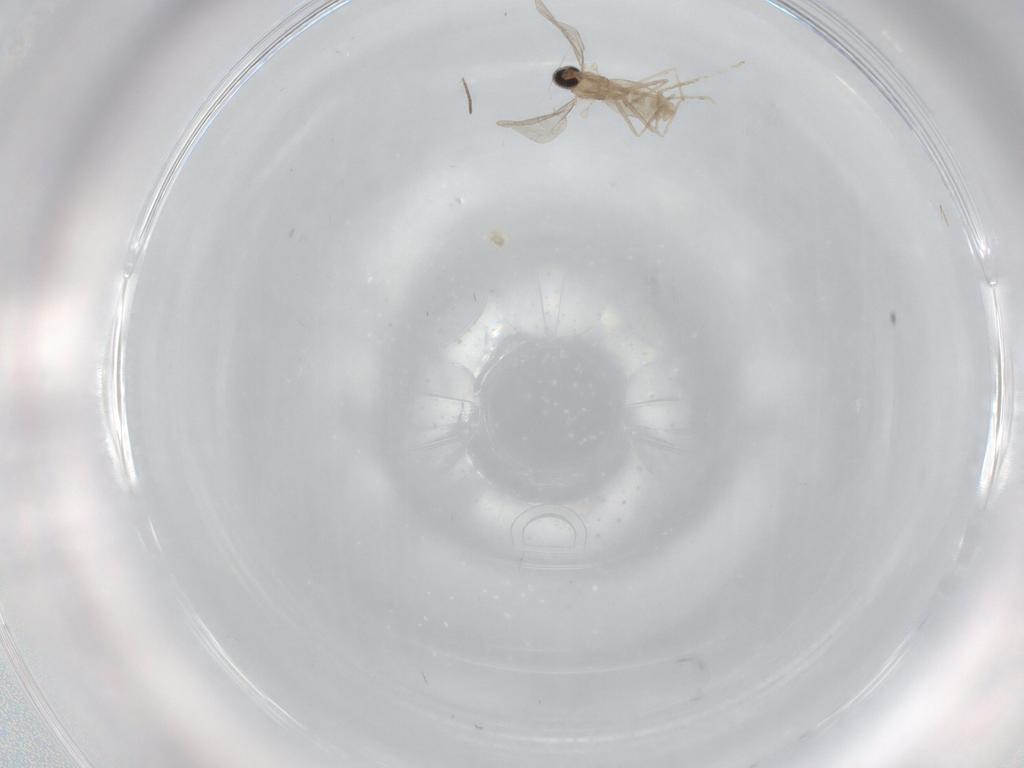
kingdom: Animalia
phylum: Arthropoda
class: Insecta
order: Diptera
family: Cecidomyiidae
